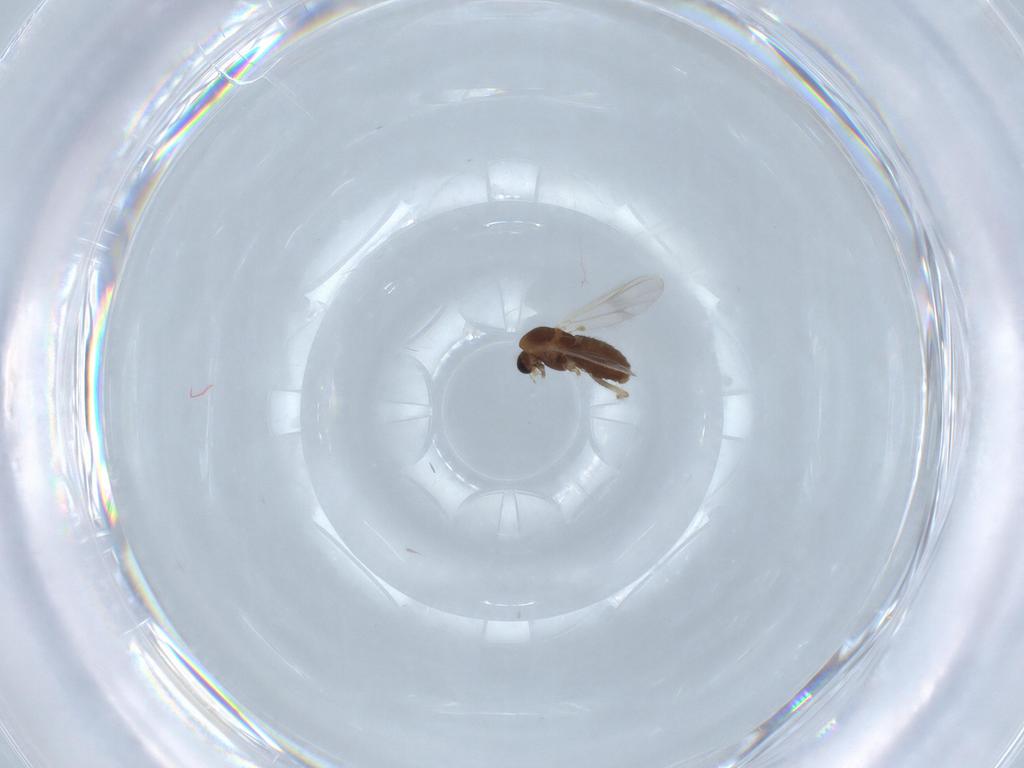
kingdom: Animalia
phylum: Arthropoda
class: Insecta
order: Diptera
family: Chironomidae
